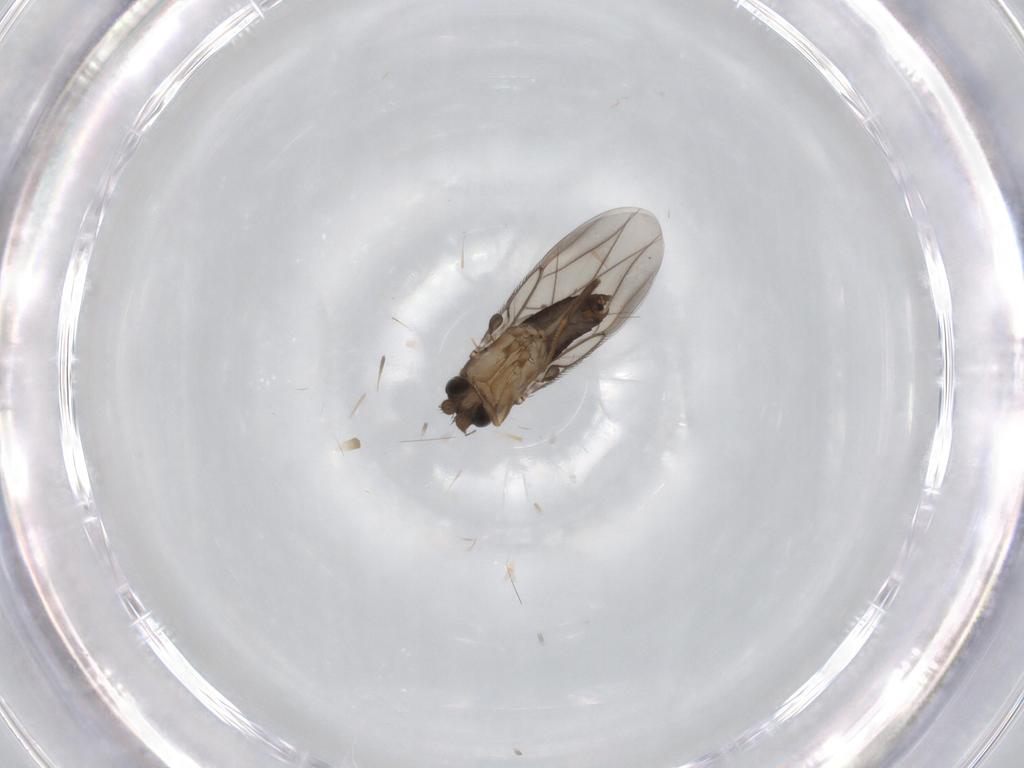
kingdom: Animalia
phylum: Arthropoda
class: Insecta
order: Diptera
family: Phoridae
